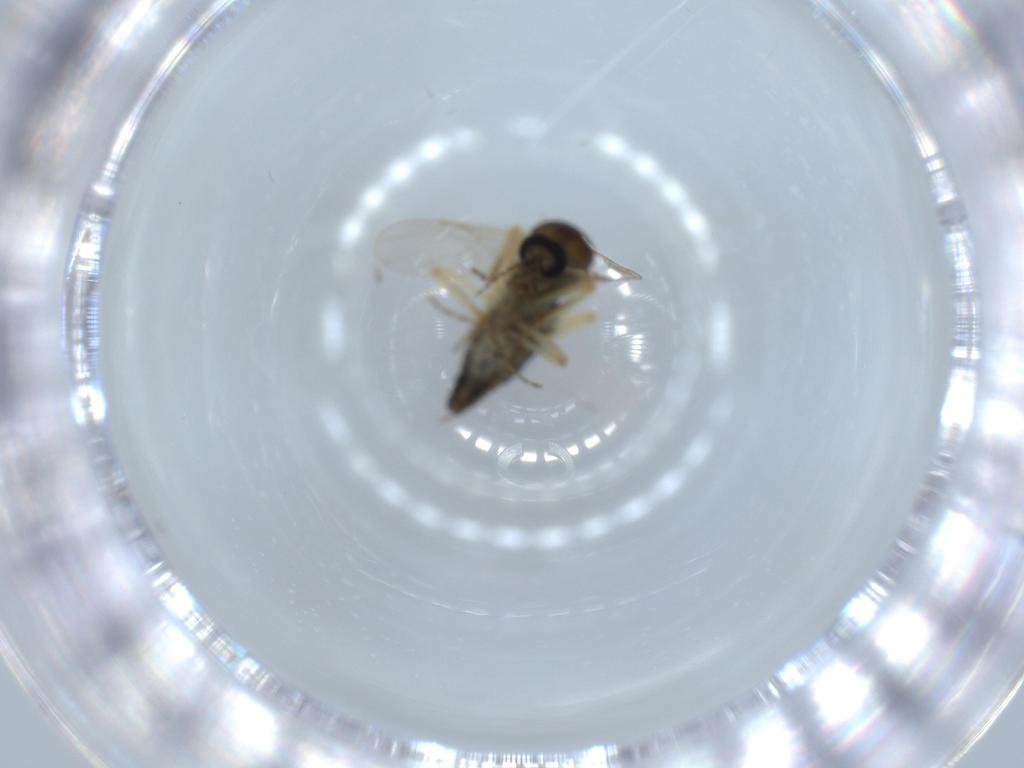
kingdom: Animalia
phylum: Arthropoda
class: Insecta
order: Diptera
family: Ceratopogonidae
